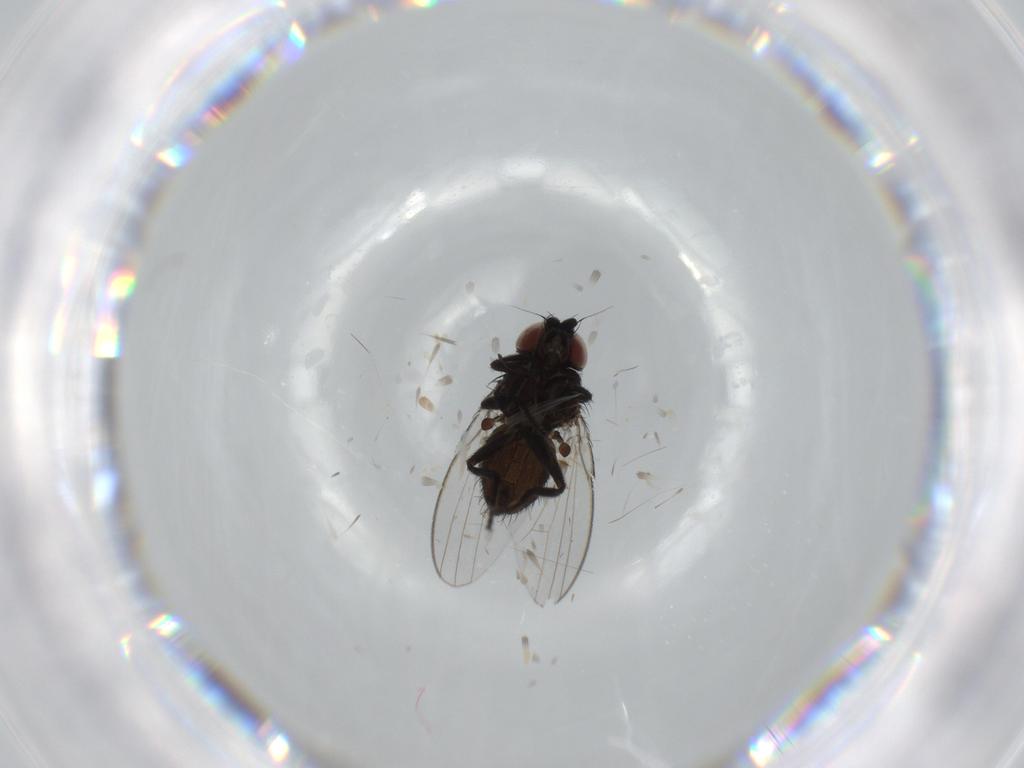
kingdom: Animalia
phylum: Arthropoda
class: Insecta
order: Diptera
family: Milichiidae
